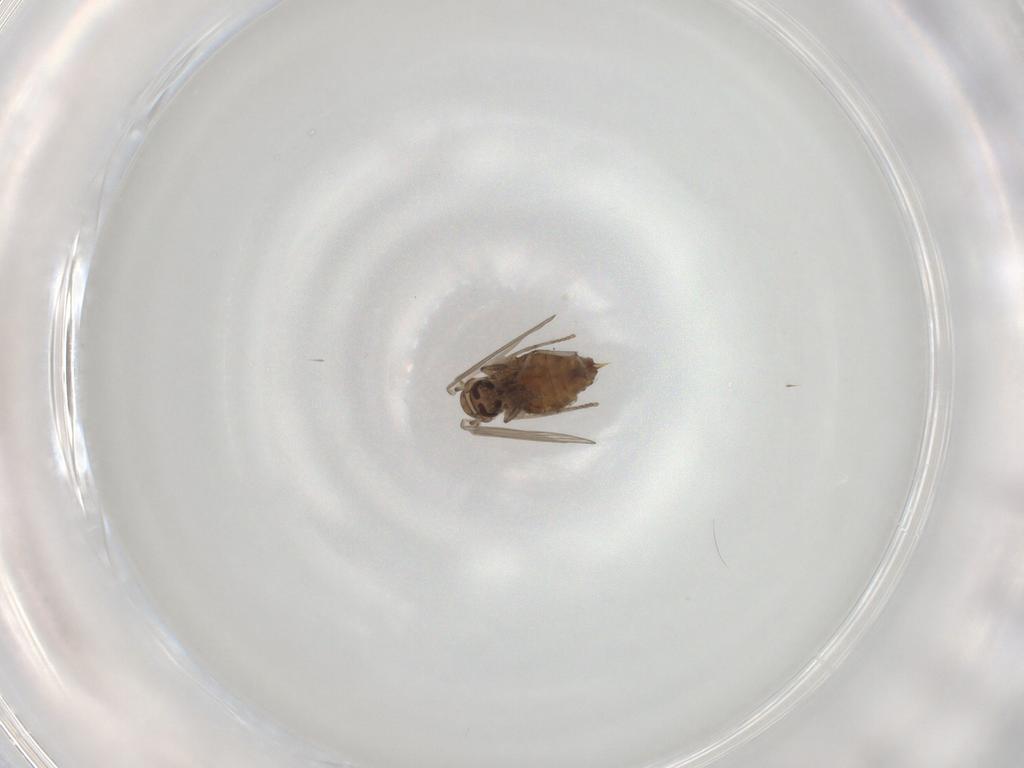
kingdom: Animalia
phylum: Arthropoda
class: Insecta
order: Diptera
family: Psychodidae
